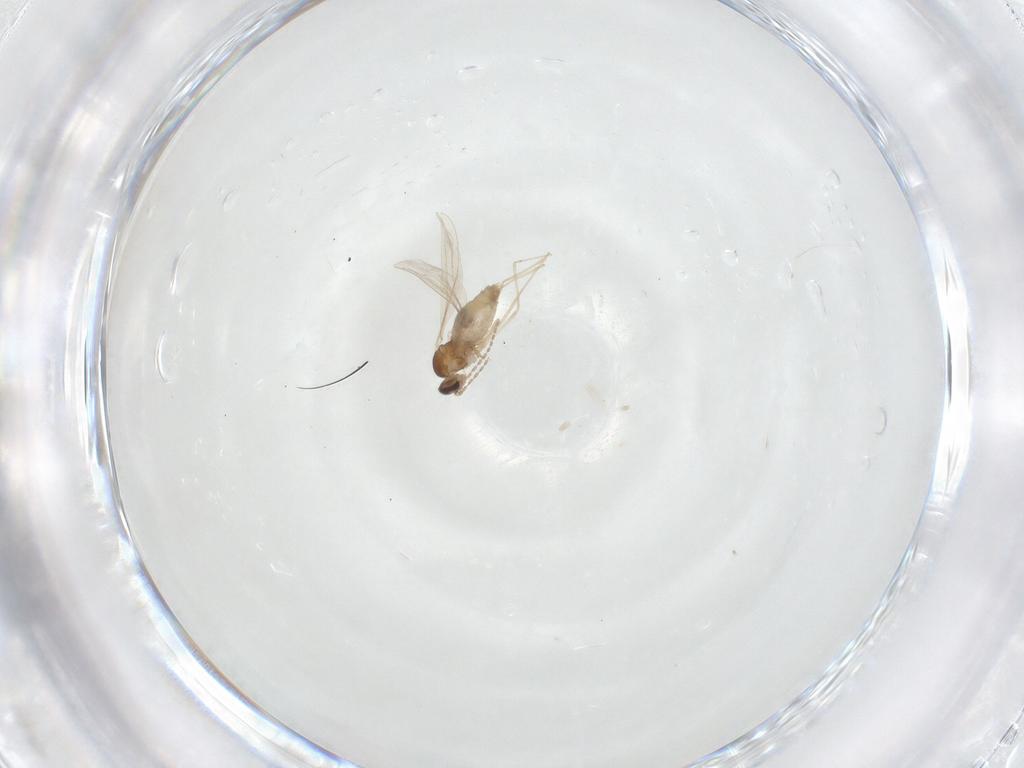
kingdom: Animalia
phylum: Arthropoda
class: Insecta
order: Diptera
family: Cecidomyiidae
